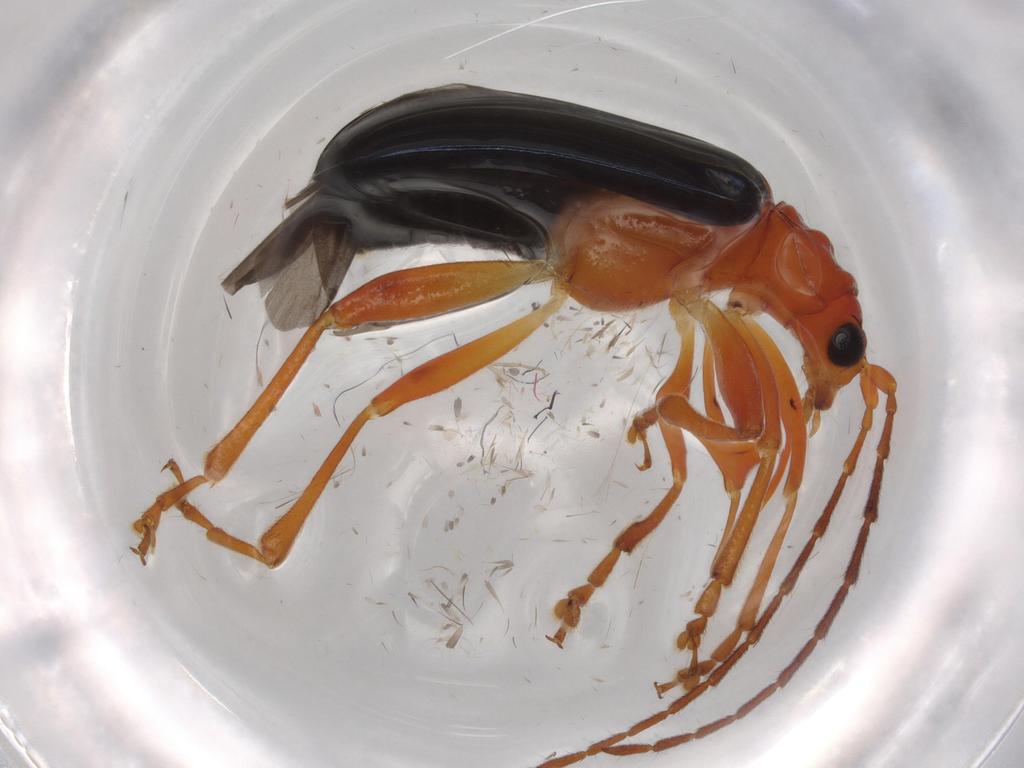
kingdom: Animalia
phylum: Arthropoda
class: Insecta
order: Coleoptera
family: Chrysomelidae
